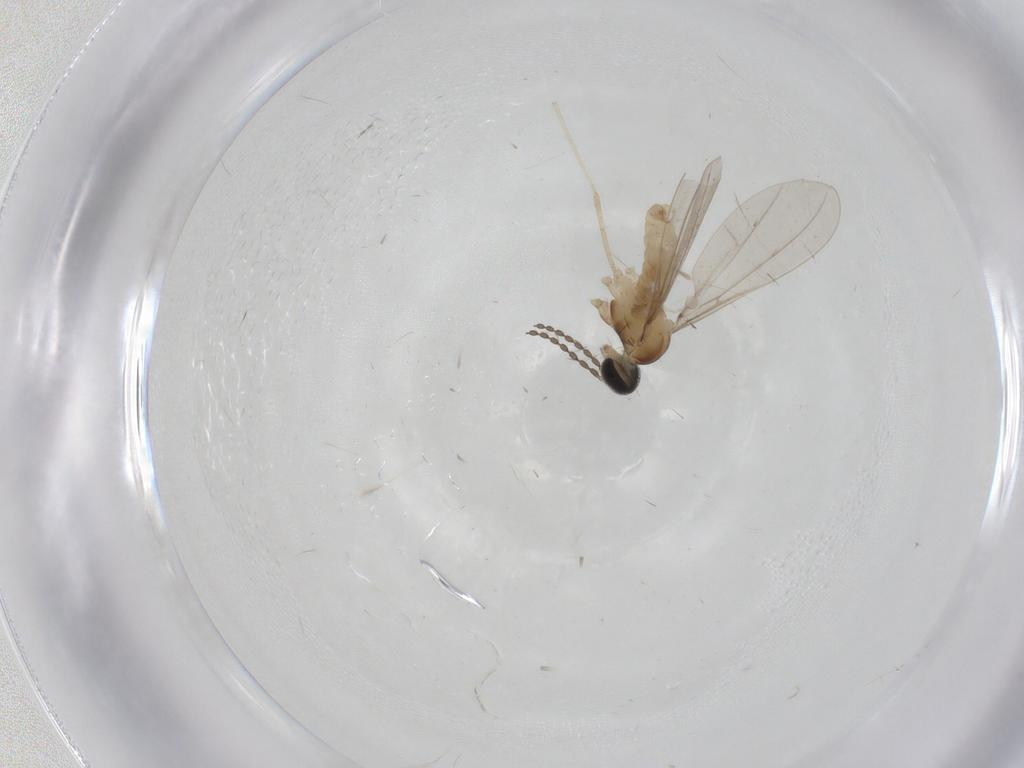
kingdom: Animalia
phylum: Arthropoda
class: Insecta
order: Diptera
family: Cecidomyiidae
